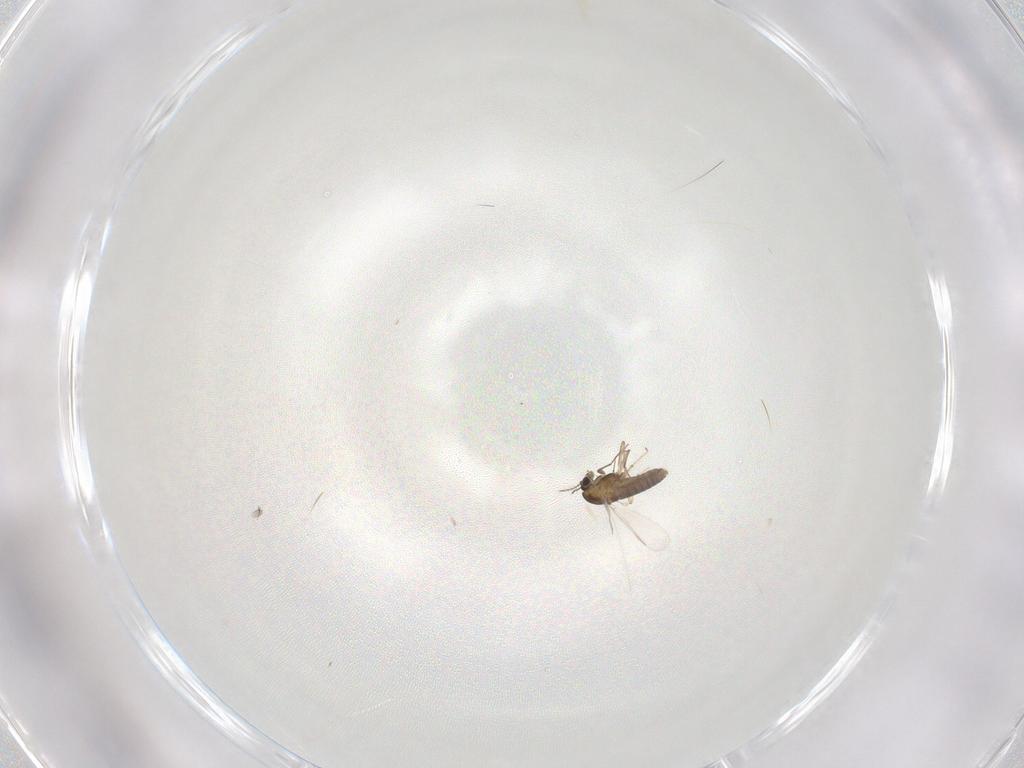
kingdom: Animalia
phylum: Arthropoda
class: Insecta
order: Diptera
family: Chironomidae
